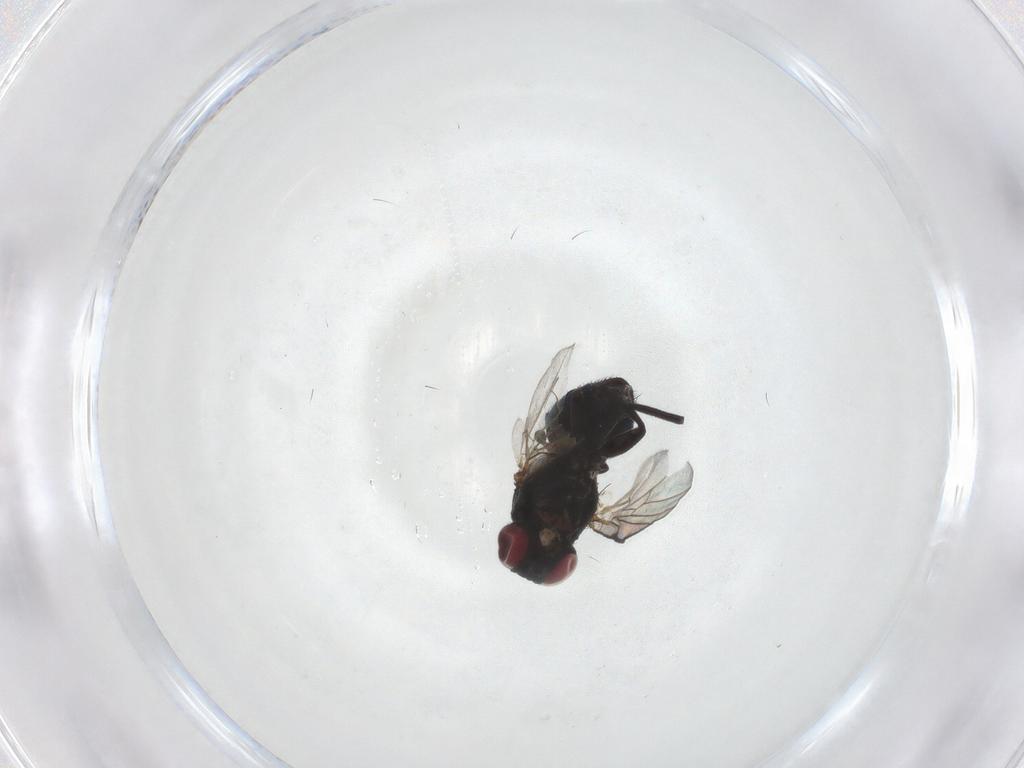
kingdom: Animalia
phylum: Arthropoda
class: Insecta
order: Diptera
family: Agromyzidae
